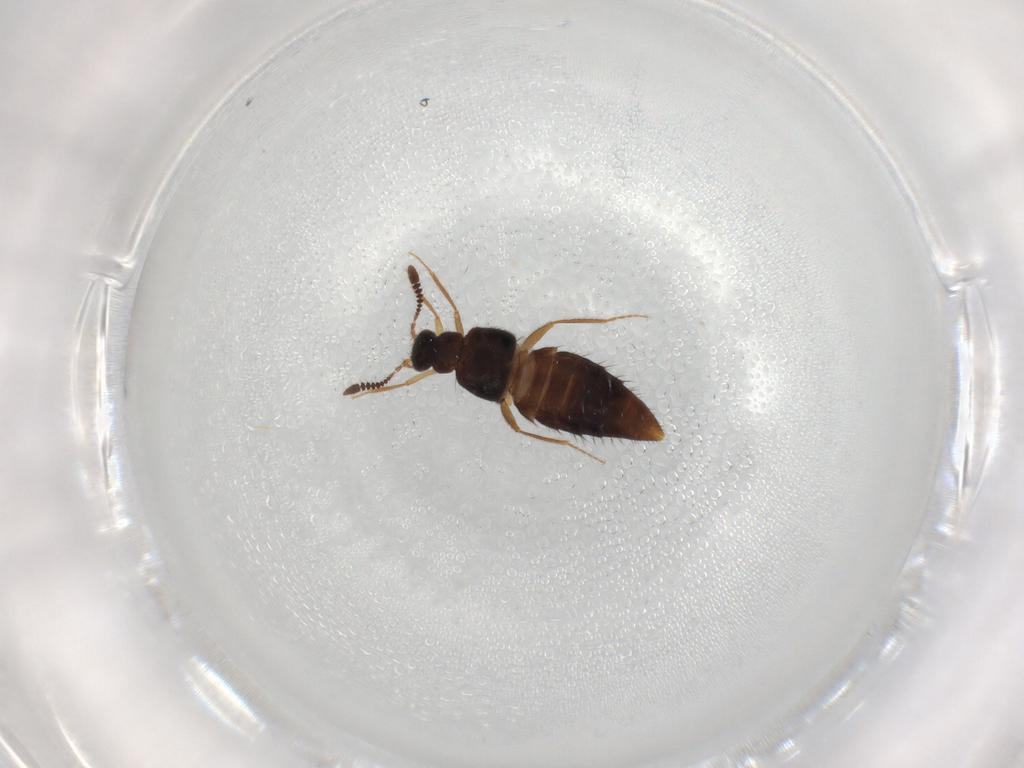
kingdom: Animalia
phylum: Arthropoda
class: Insecta
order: Coleoptera
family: Staphylinidae
